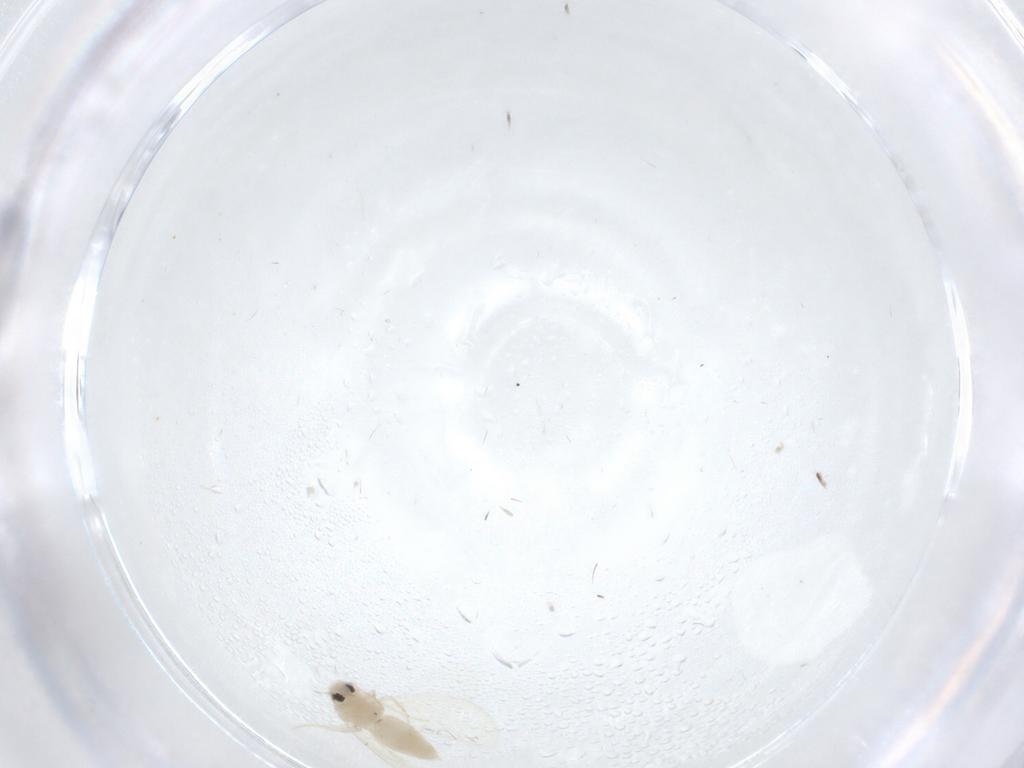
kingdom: Animalia
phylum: Arthropoda
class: Insecta
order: Hemiptera
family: Aleyrodidae
